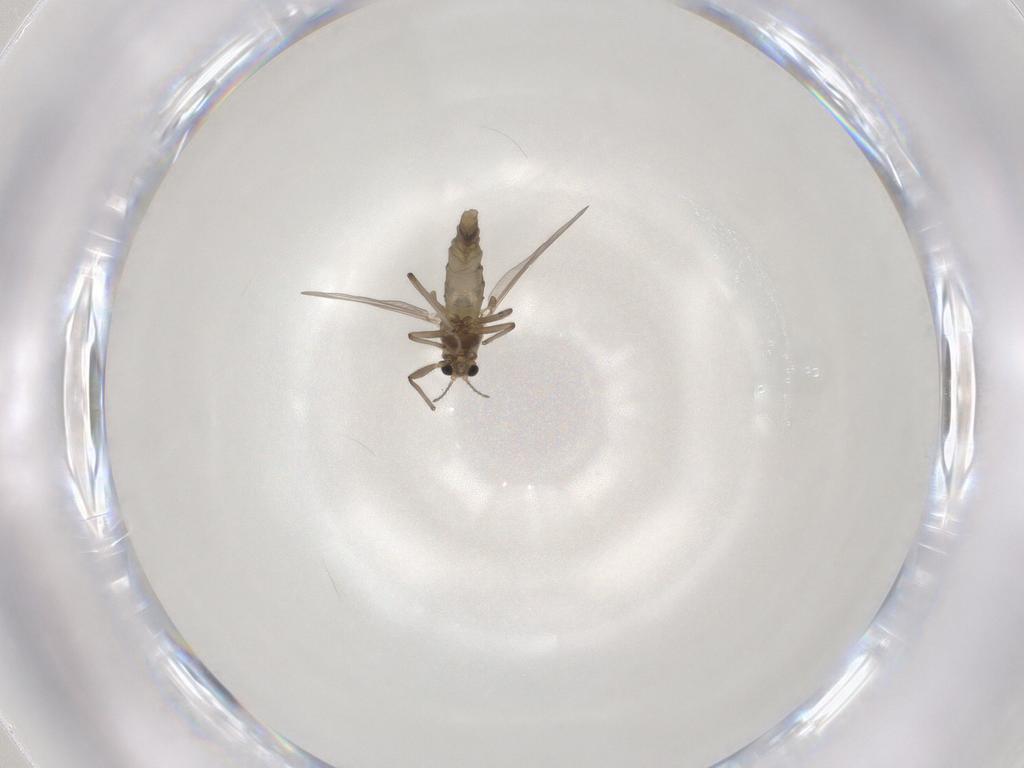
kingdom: Animalia
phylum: Arthropoda
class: Insecta
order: Diptera
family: Chironomidae
